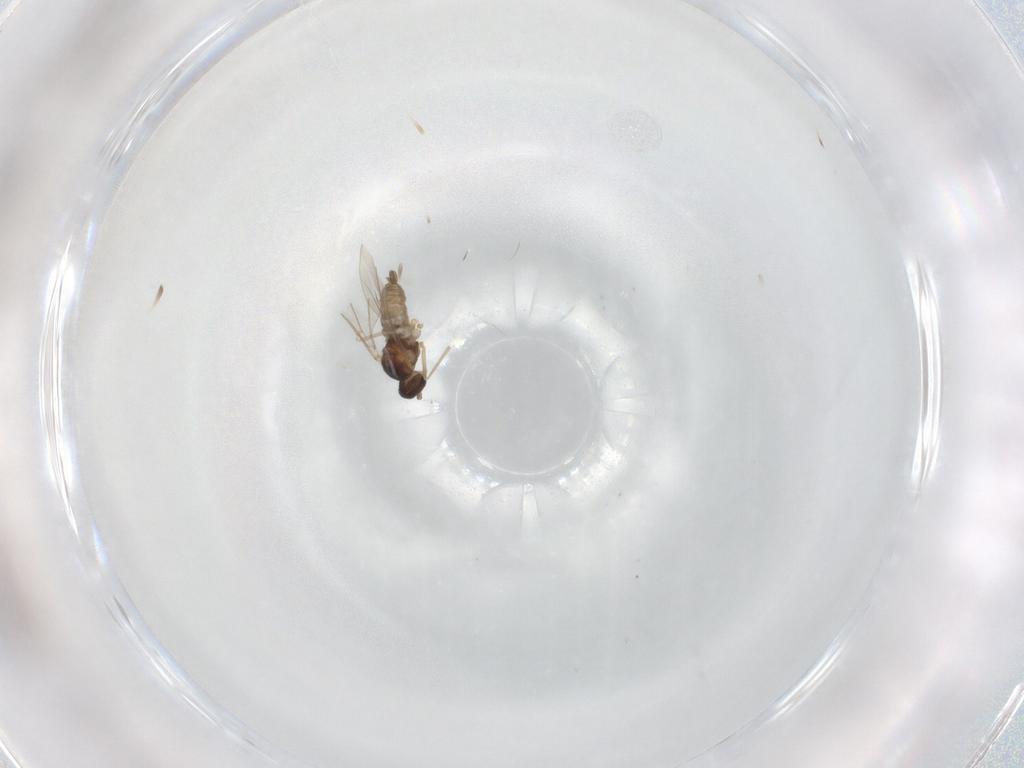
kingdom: Animalia
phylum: Arthropoda
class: Insecta
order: Diptera
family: Cecidomyiidae
